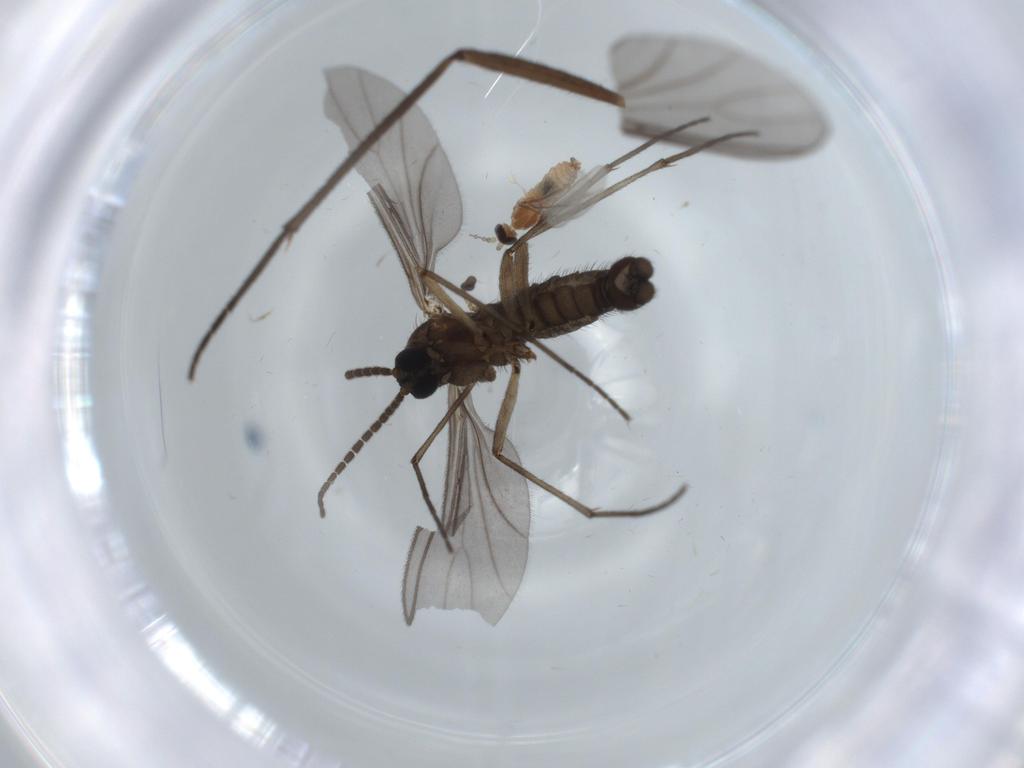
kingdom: Animalia
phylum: Arthropoda
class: Insecta
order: Diptera
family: Sciaridae
